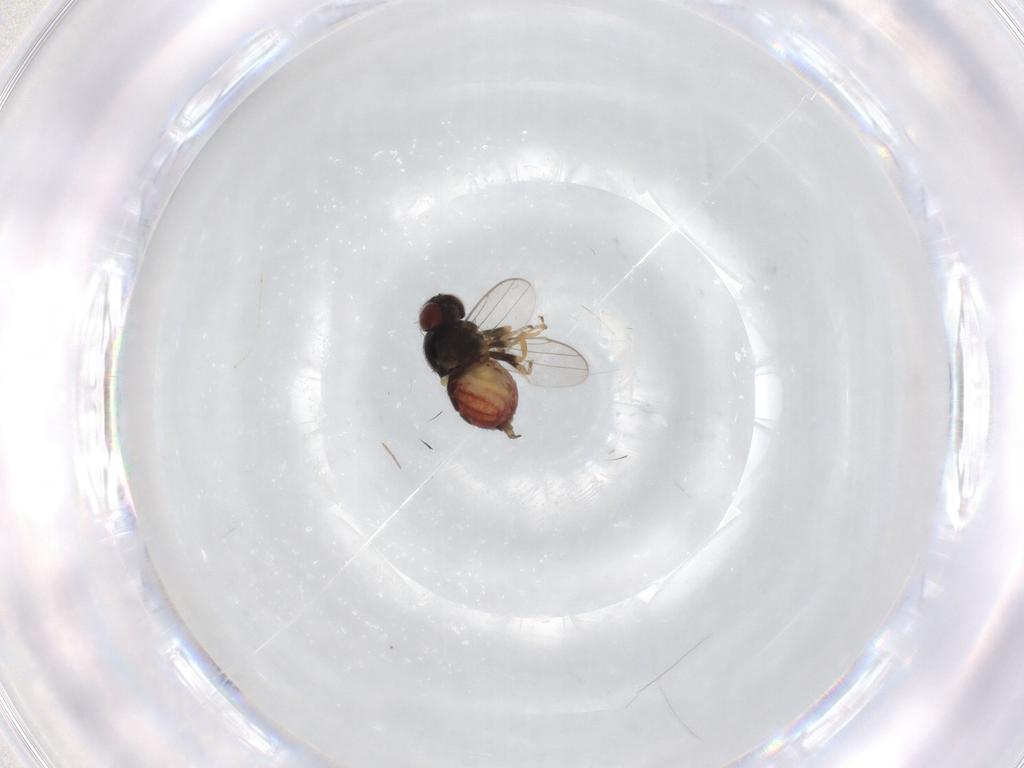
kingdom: Animalia
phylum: Arthropoda
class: Insecta
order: Diptera
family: Chloropidae
